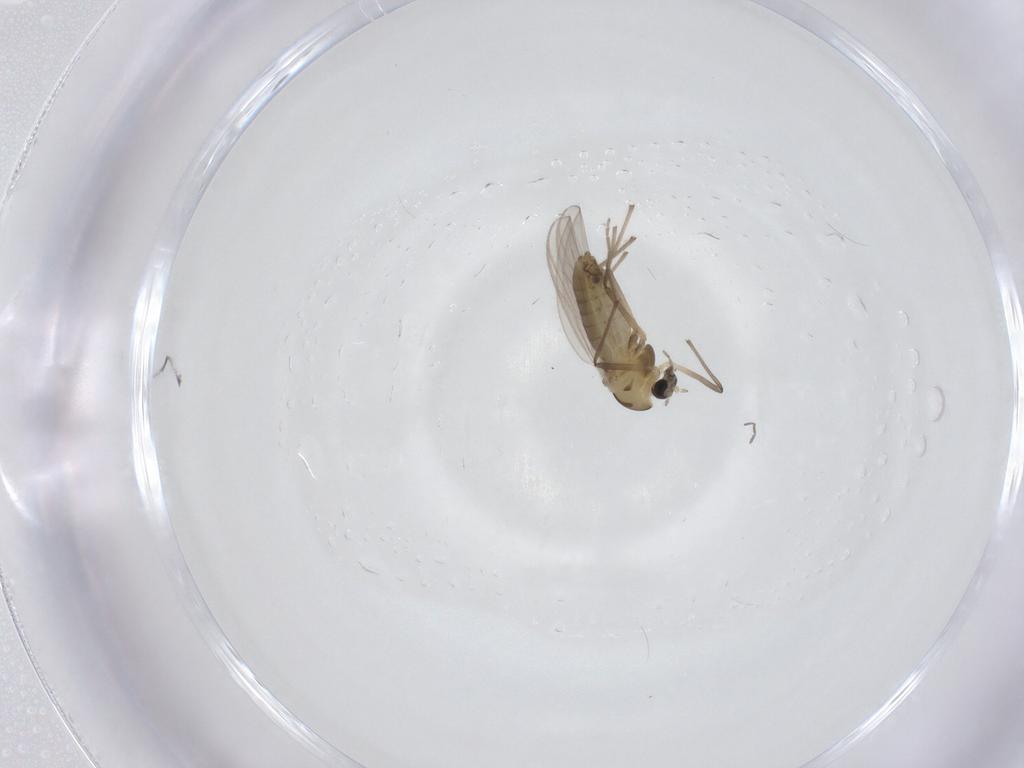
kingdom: Animalia
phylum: Arthropoda
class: Insecta
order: Diptera
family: Chironomidae
